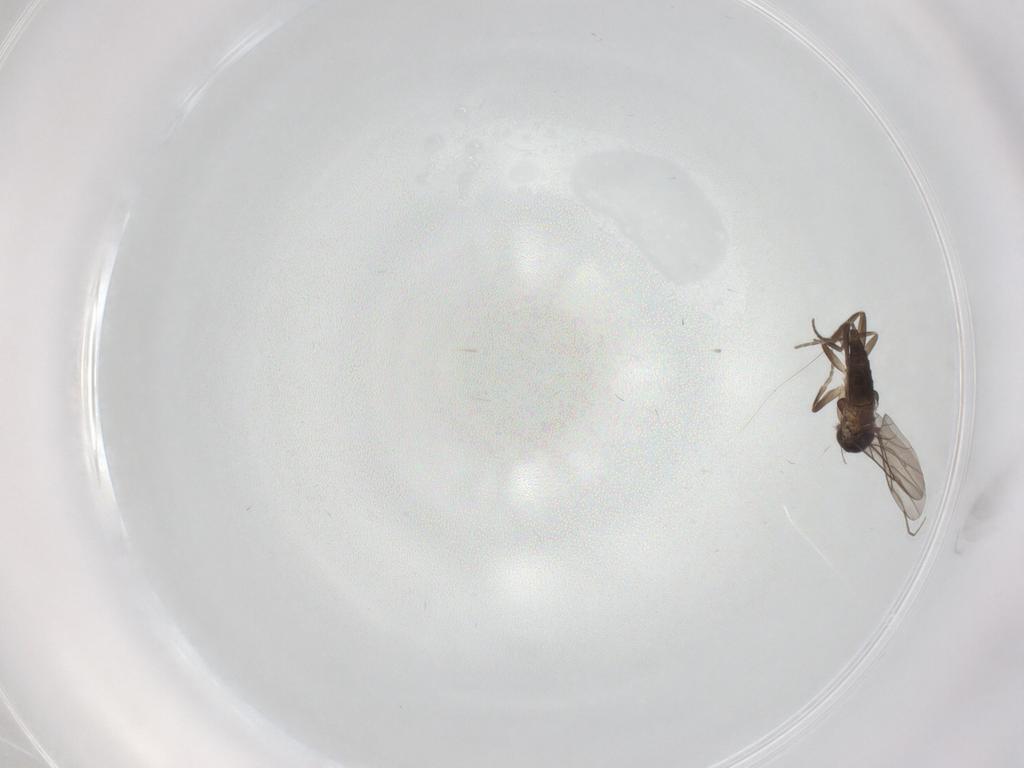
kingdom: Animalia
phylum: Arthropoda
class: Insecta
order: Diptera
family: Chironomidae
